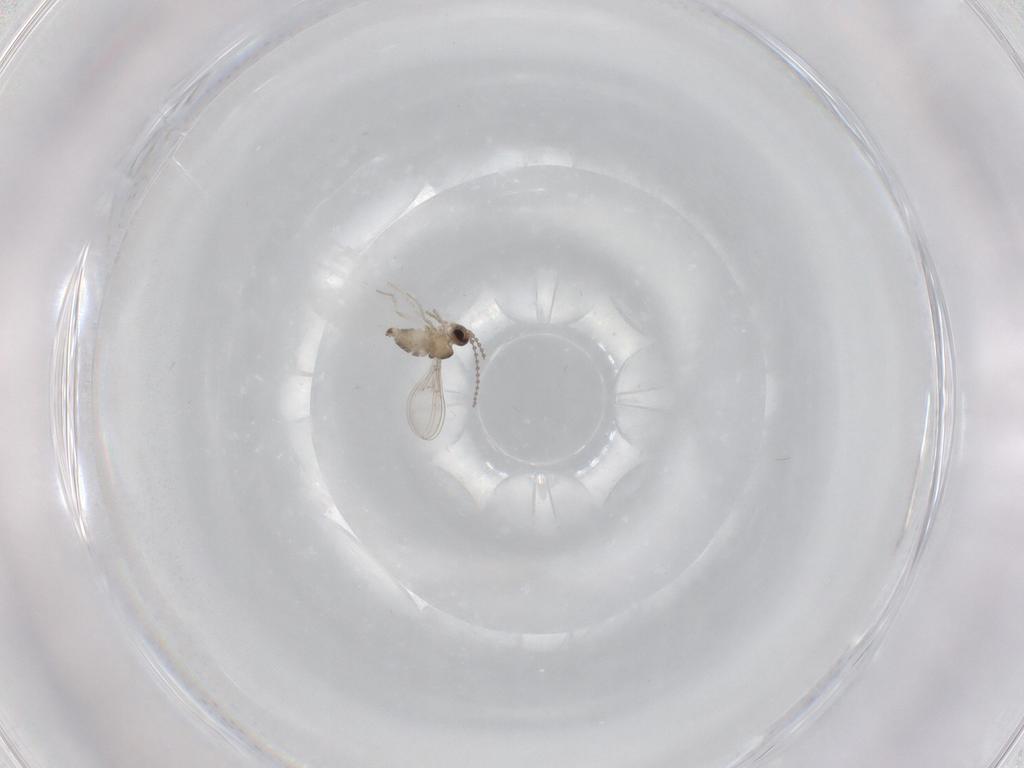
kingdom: Animalia
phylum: Arthropoda
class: Insecta
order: Diptera
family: Cecidomyiidae
